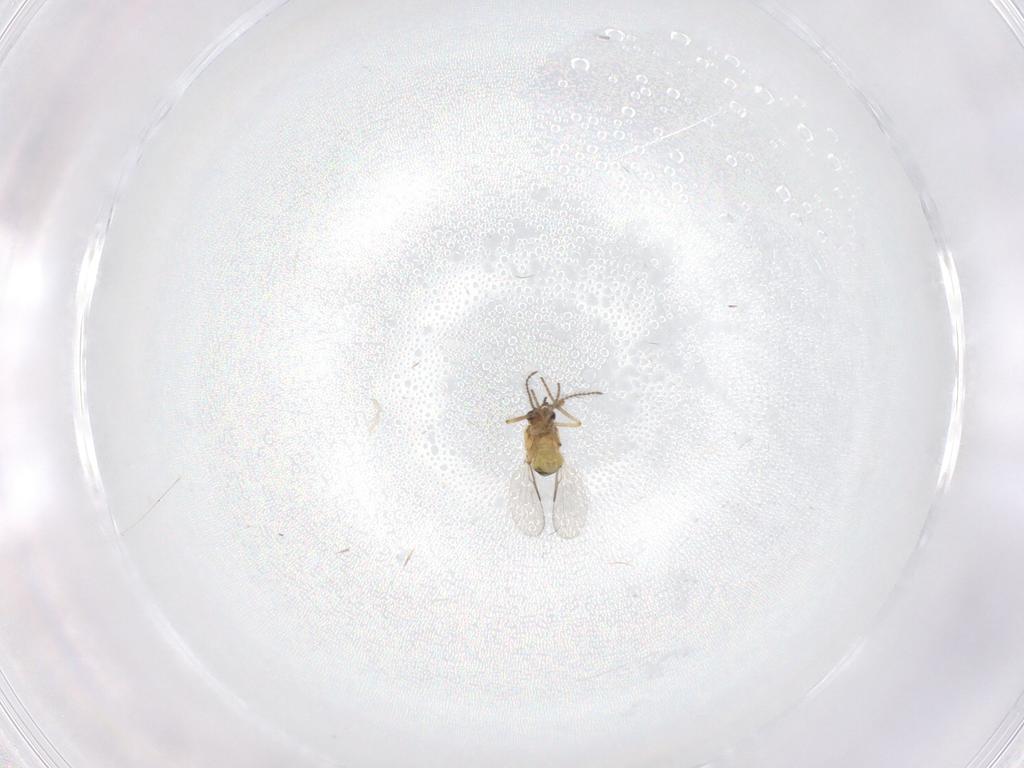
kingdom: Animalia
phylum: Arthropoda
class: Insecta
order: Diptera
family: Ceratopogonidae
